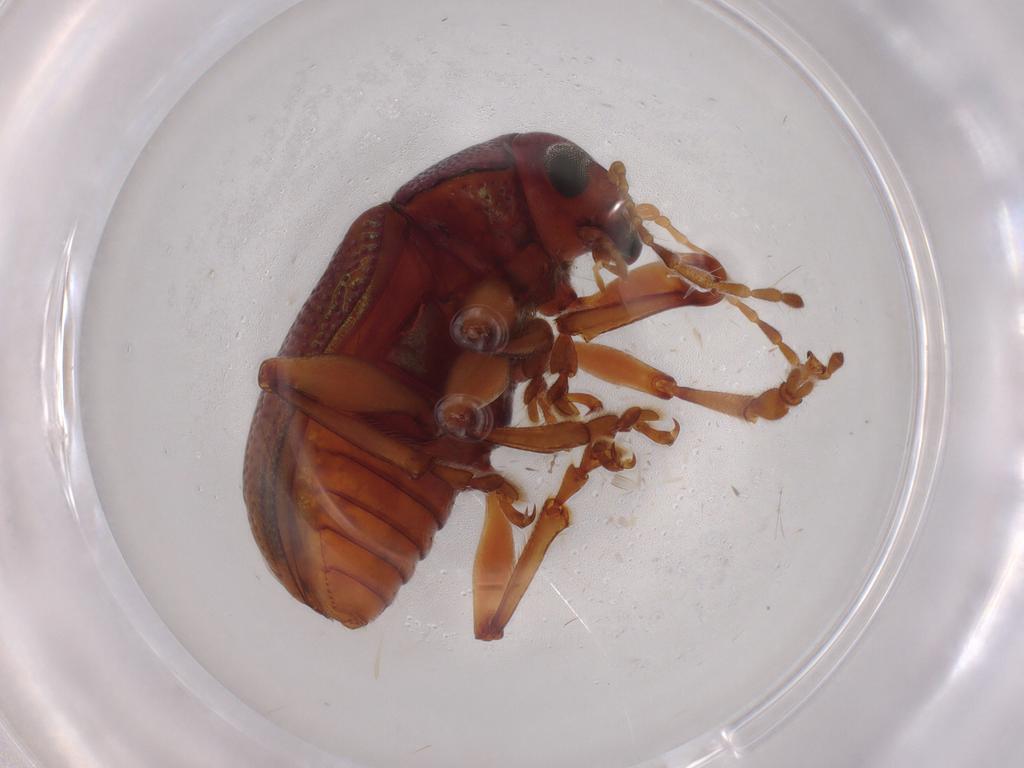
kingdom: Animalia
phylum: Arthropoda
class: Insecta
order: Coleoptera
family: Chrysomelidae
